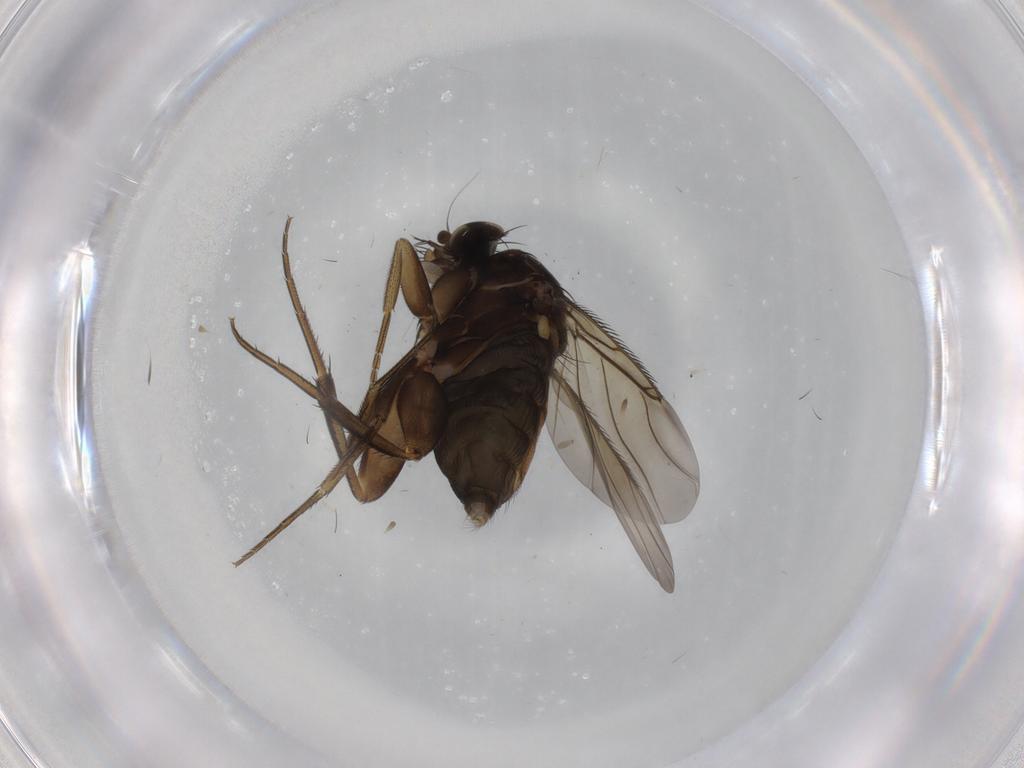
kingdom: Animalia
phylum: Arthropoda
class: Insecta
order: Diptera
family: Phoridae
